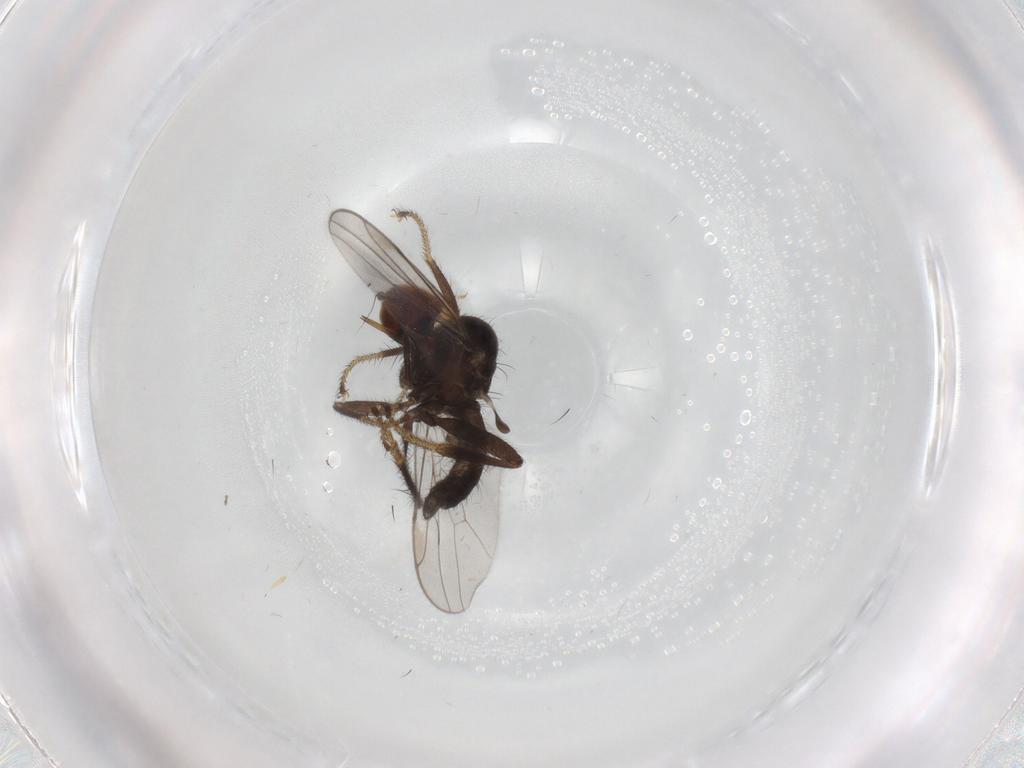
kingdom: Animalia
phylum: Arthropoda
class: Insecta
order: Diptera
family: Hybotidae
